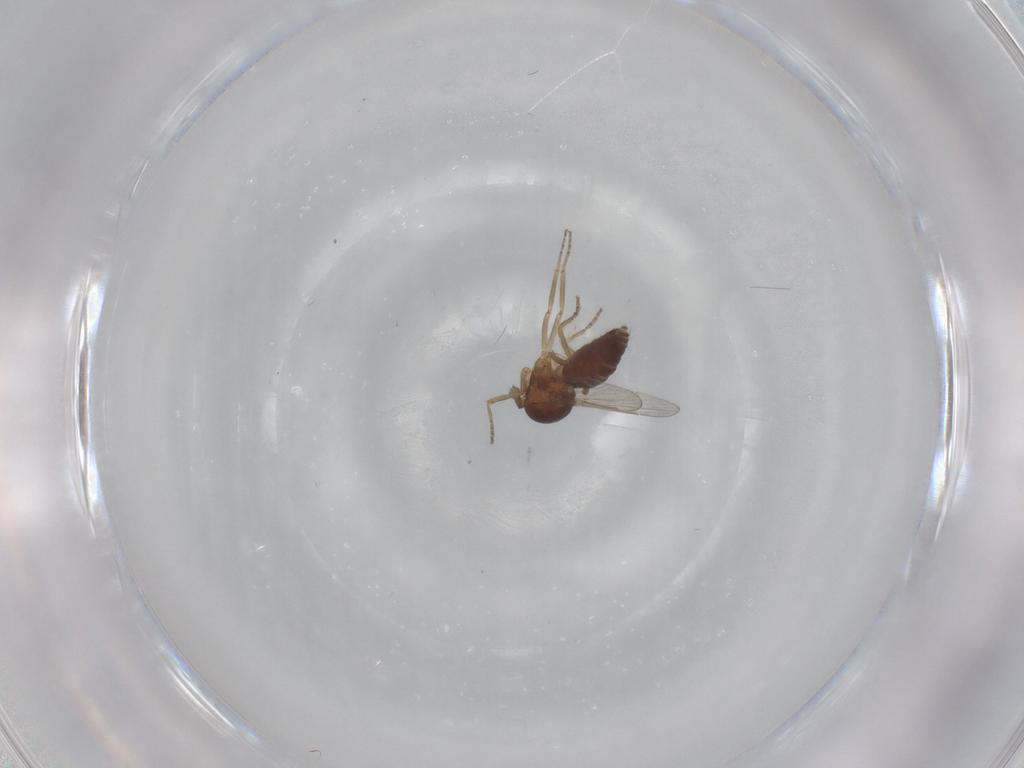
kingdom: Animalia
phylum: Arthropoda
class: Insecta
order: Diptera
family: Ceratopogonidae
